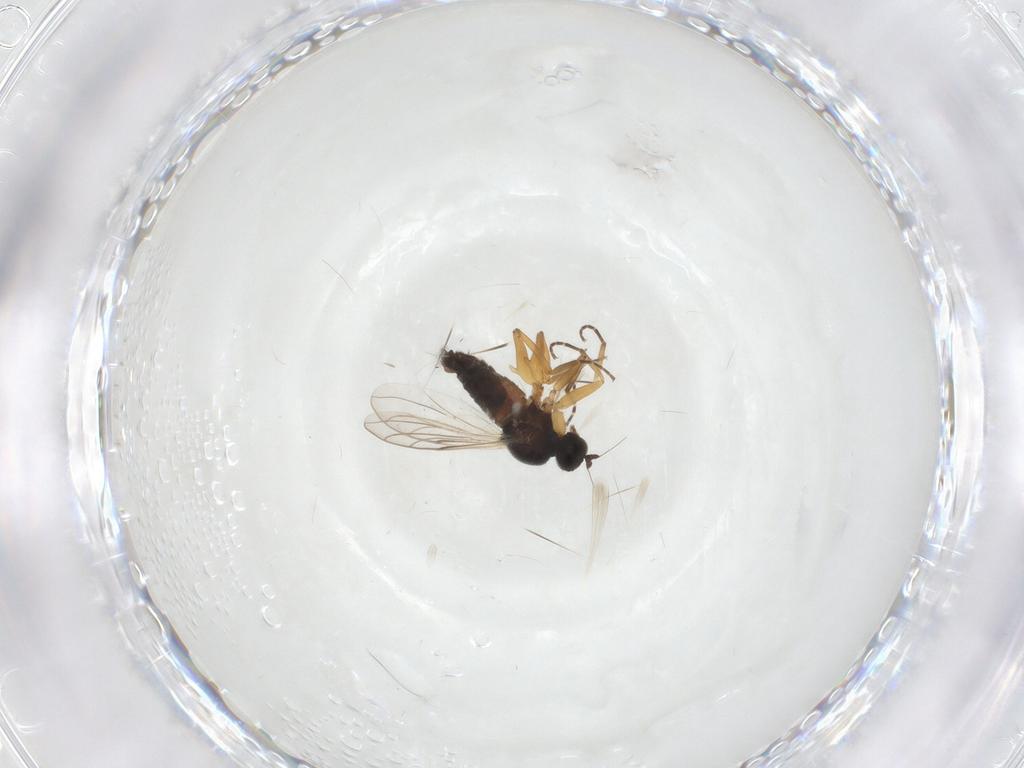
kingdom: Animalia
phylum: Arthropoda
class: Insecta
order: Diptera
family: Hybotidae
